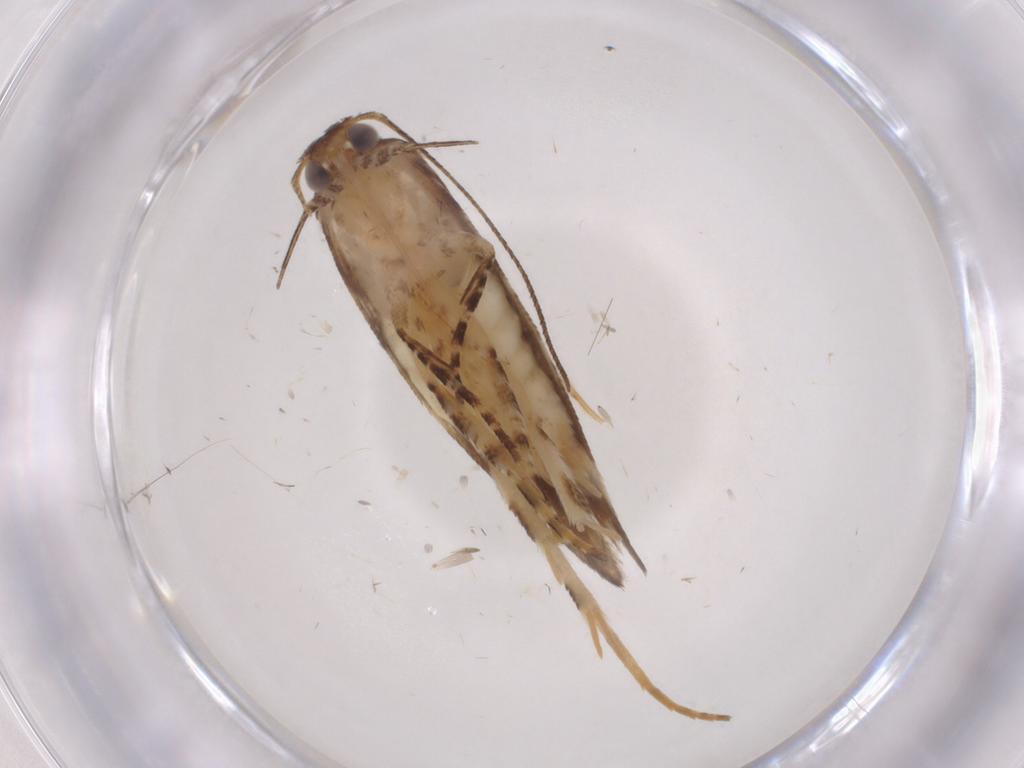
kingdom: Animalia
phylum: Arthropoda
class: Insecta
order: Lepidoptera
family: Gelechiidae
